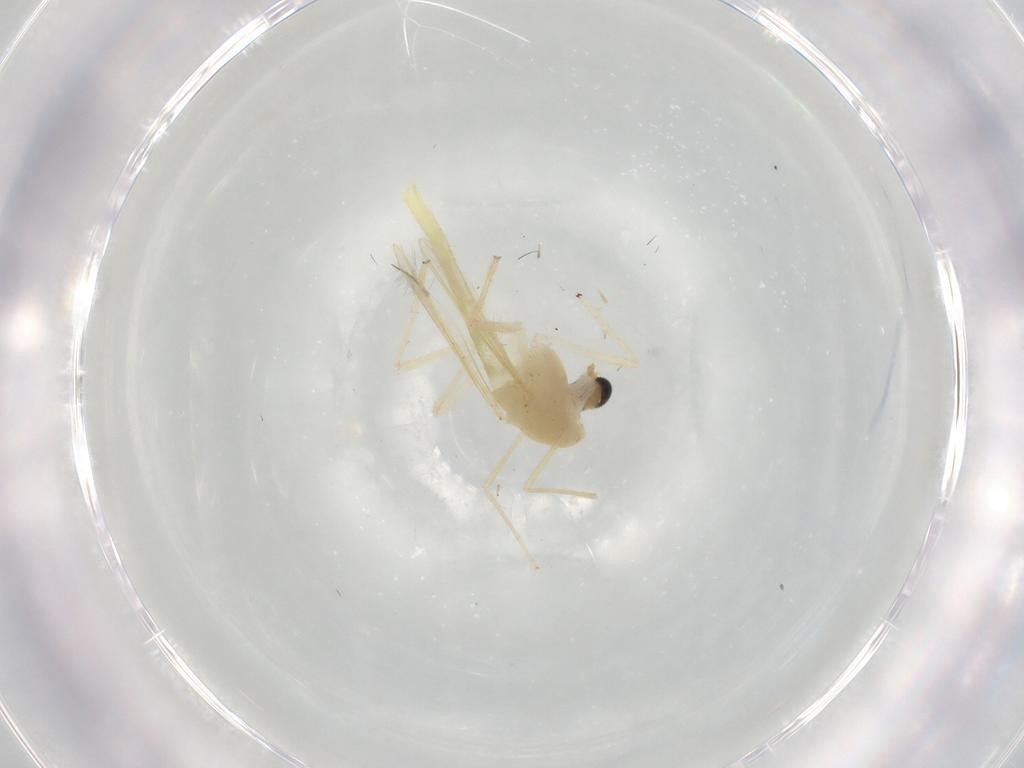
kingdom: Animalia
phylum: Arthropoda
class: Insecta
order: Diptera
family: Chironomidae
